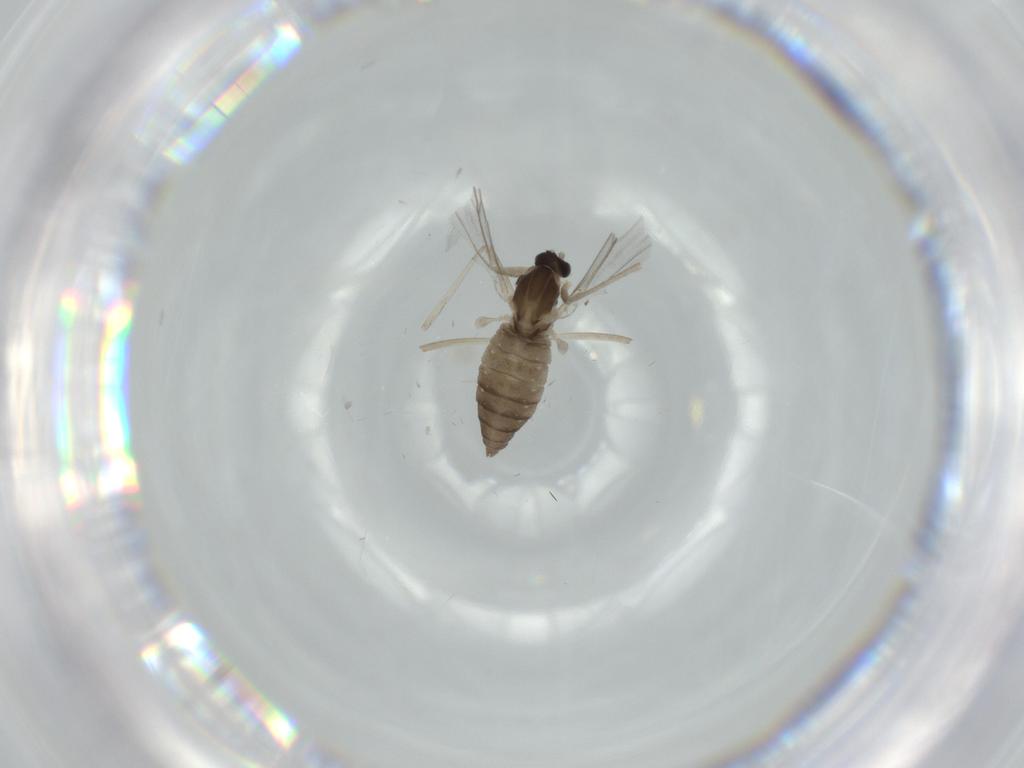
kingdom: Animalia
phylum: Arthropoda
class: Insecta
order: Diptera
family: Cecidomyiidae
